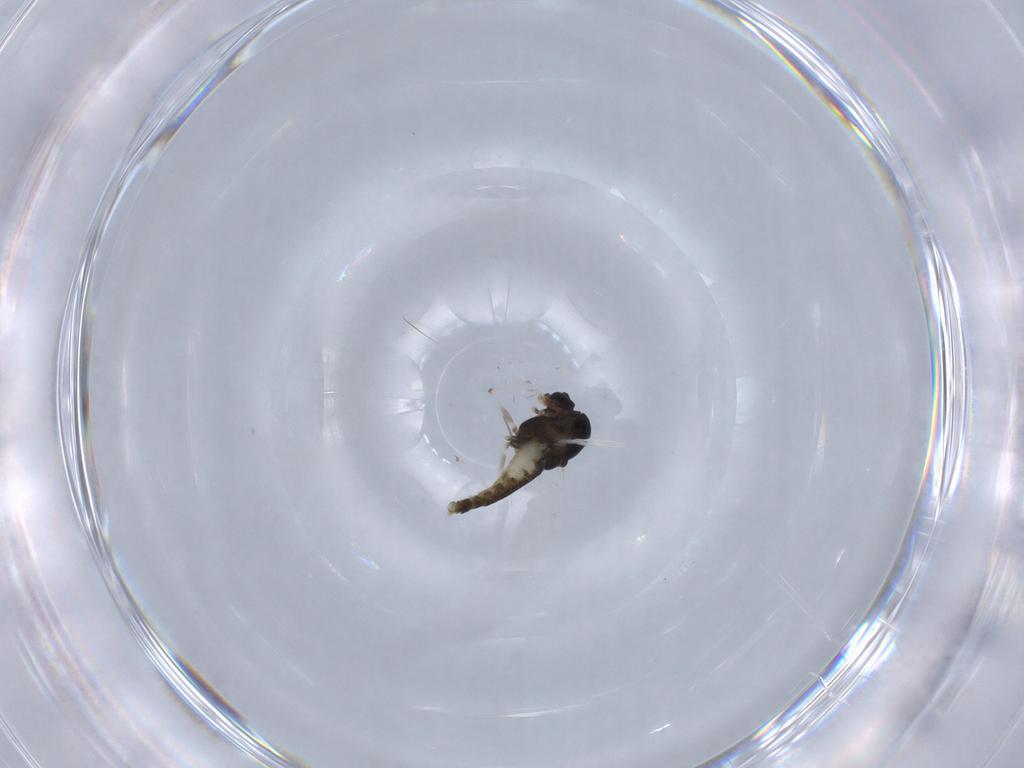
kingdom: Animalia
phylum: Arthropoda
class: Insecta
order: Diptera
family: Chironomidae
